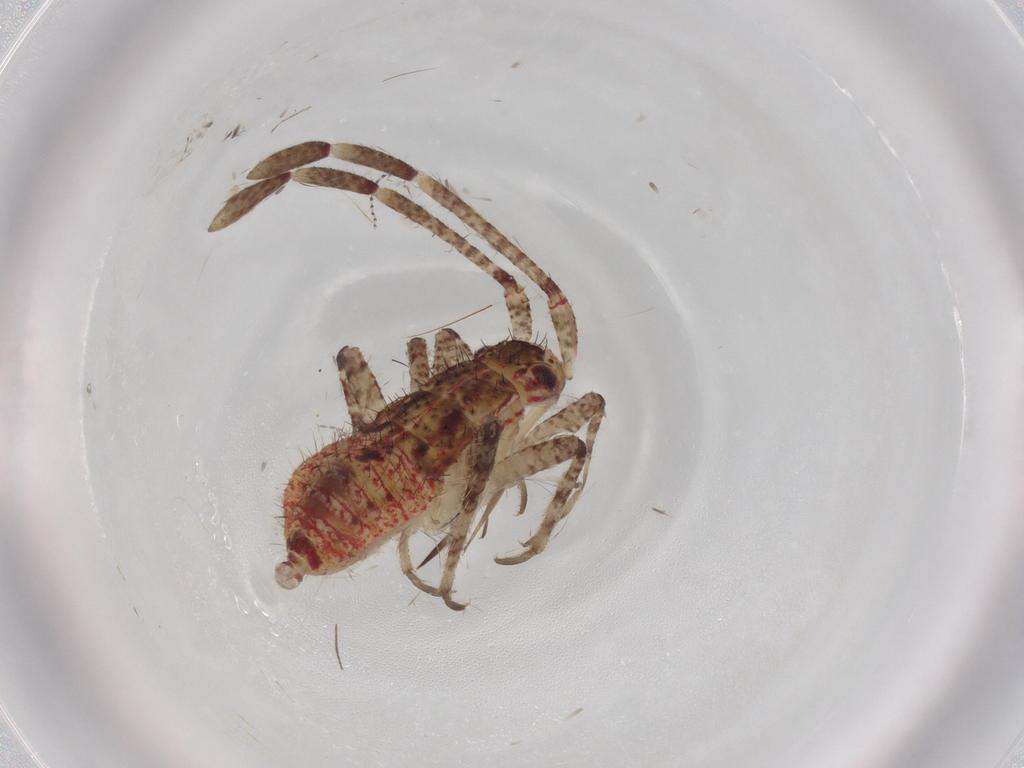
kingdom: Animalia
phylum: Arthropoda
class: Insecta
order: Hemiptera
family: Miridae
